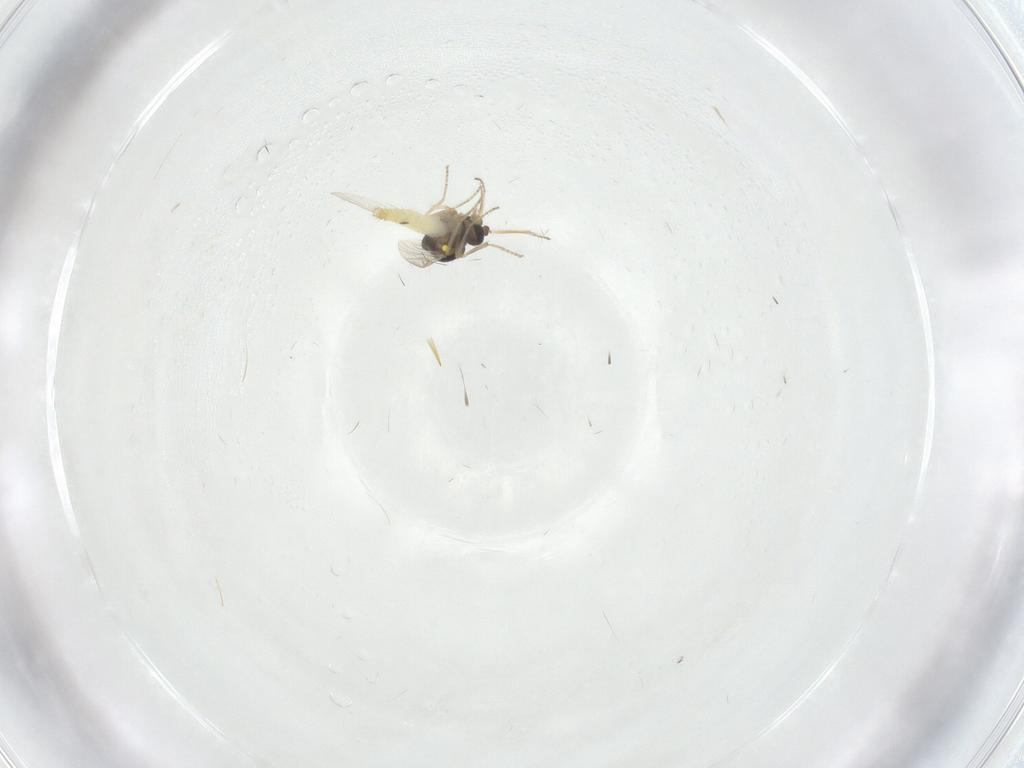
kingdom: Animalia
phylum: Arthropoda
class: Insecta
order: Diptera
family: Ceratopogonidae
